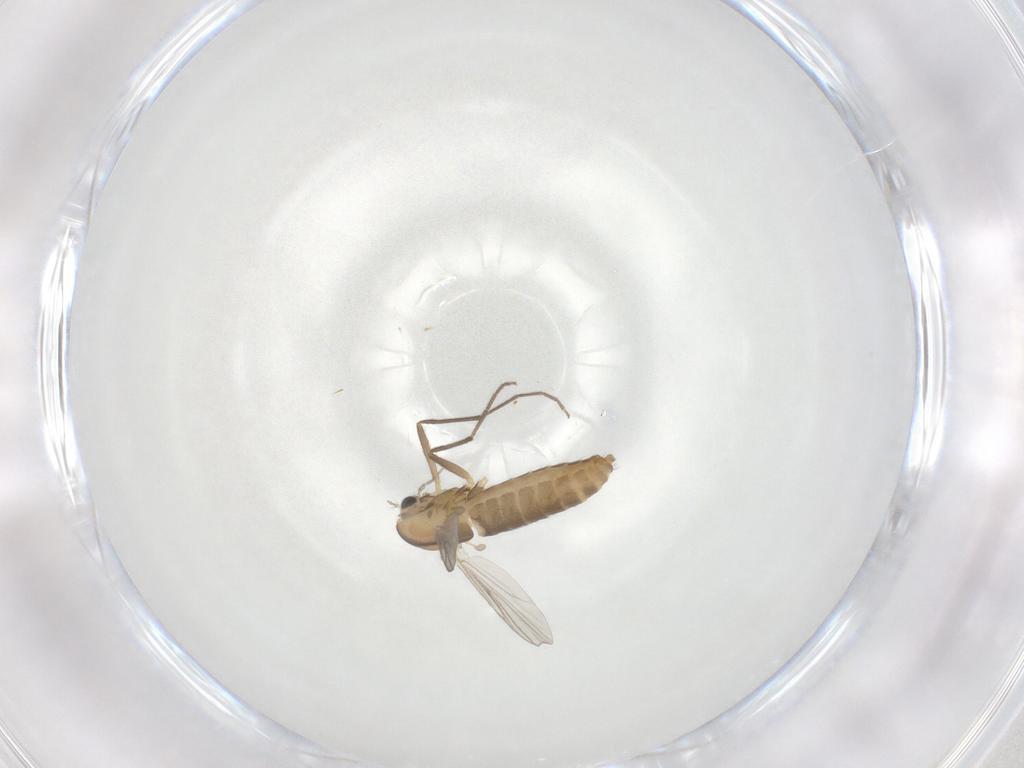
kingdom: Animalia
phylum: Arthropoda
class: Insecta
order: Diptera
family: Chironomidae
